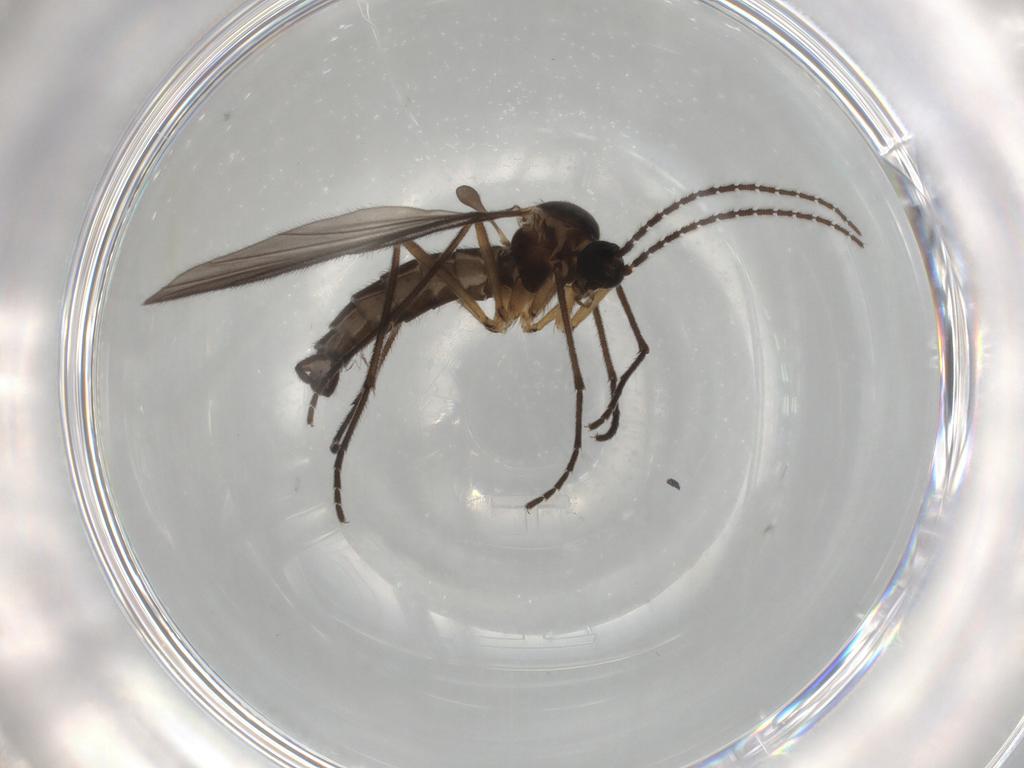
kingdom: Animalia
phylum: Arthropoda
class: Insecta
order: Diptera
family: Sciaridae
